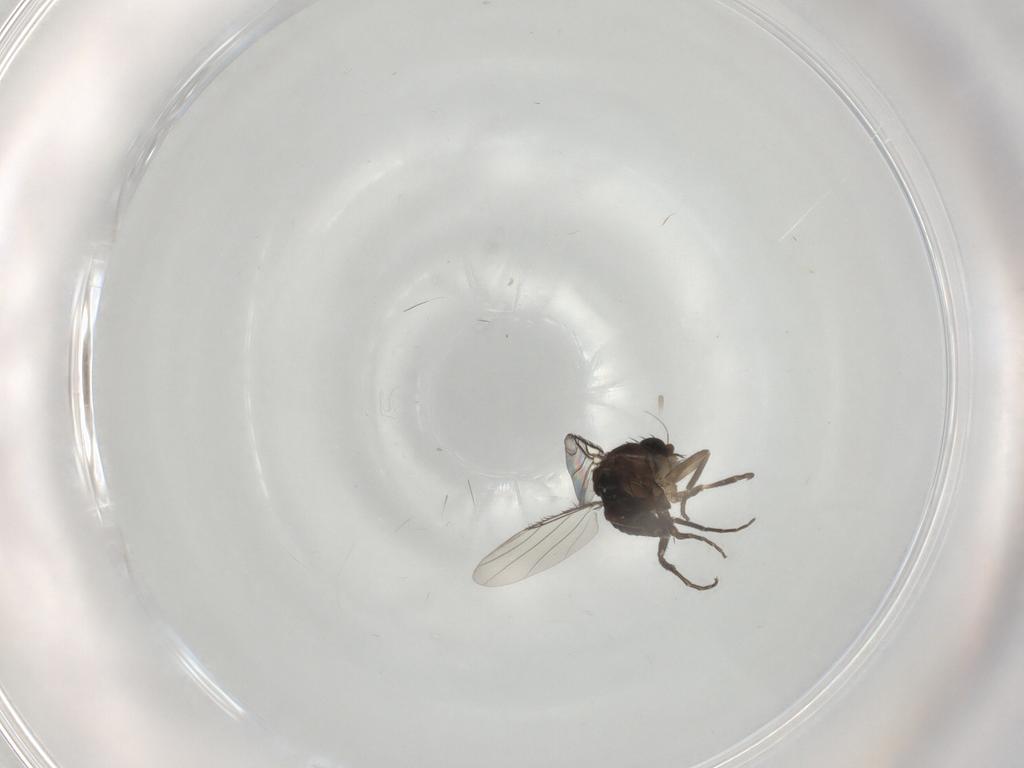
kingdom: Animalia
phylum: Arthropoda
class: Insecta
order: Diptera
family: Phoridae
